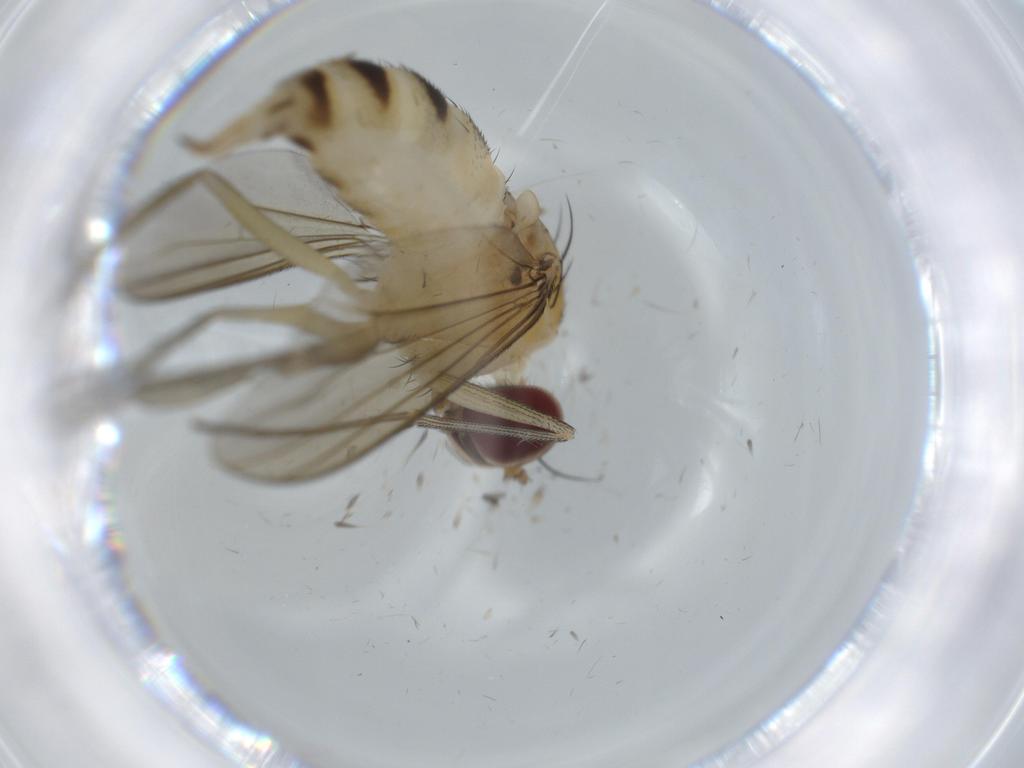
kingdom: Animalia
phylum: Arthropoda
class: Insecta
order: Diptera
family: Dolichopodidae
